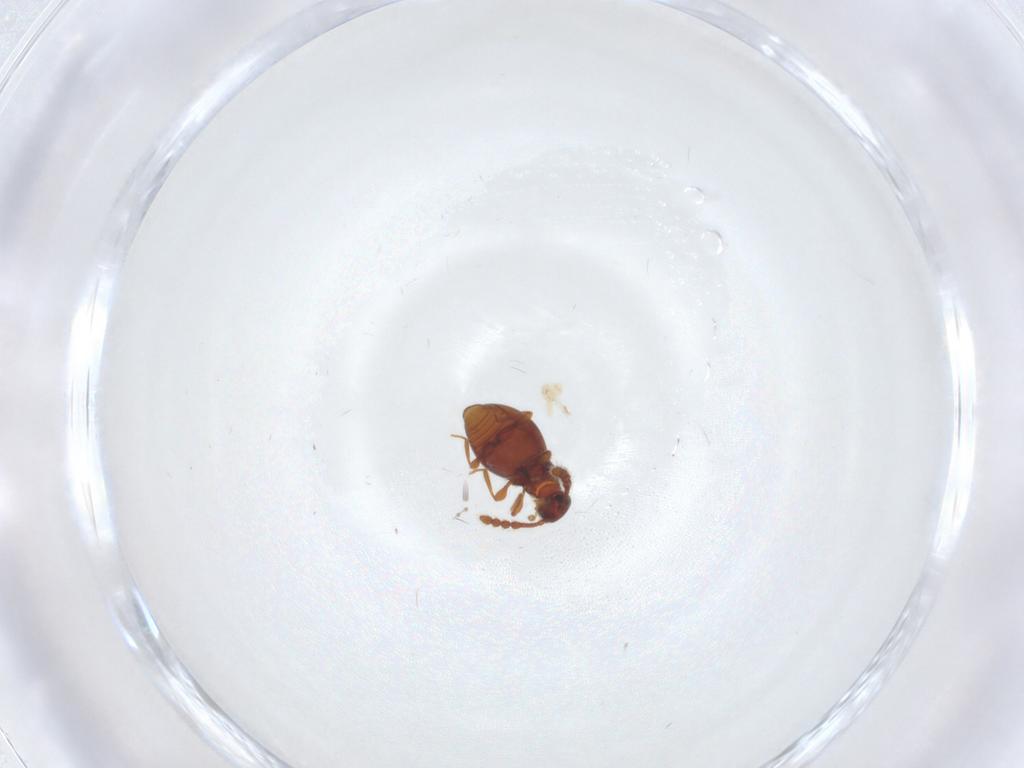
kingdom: Animalia
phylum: Arthropoda
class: Insecta
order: Coleoptera
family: Staphylinidae
